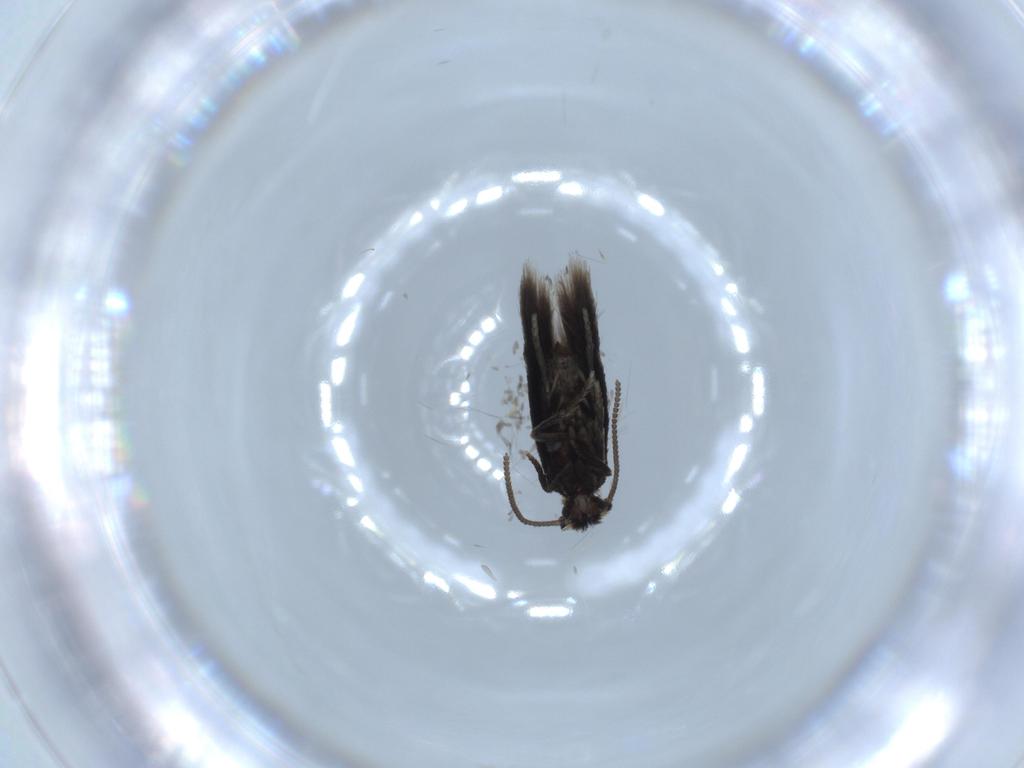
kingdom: Animalia
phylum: Arthropoda
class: Insecta
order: Lepidoptera
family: Nepticulidae
